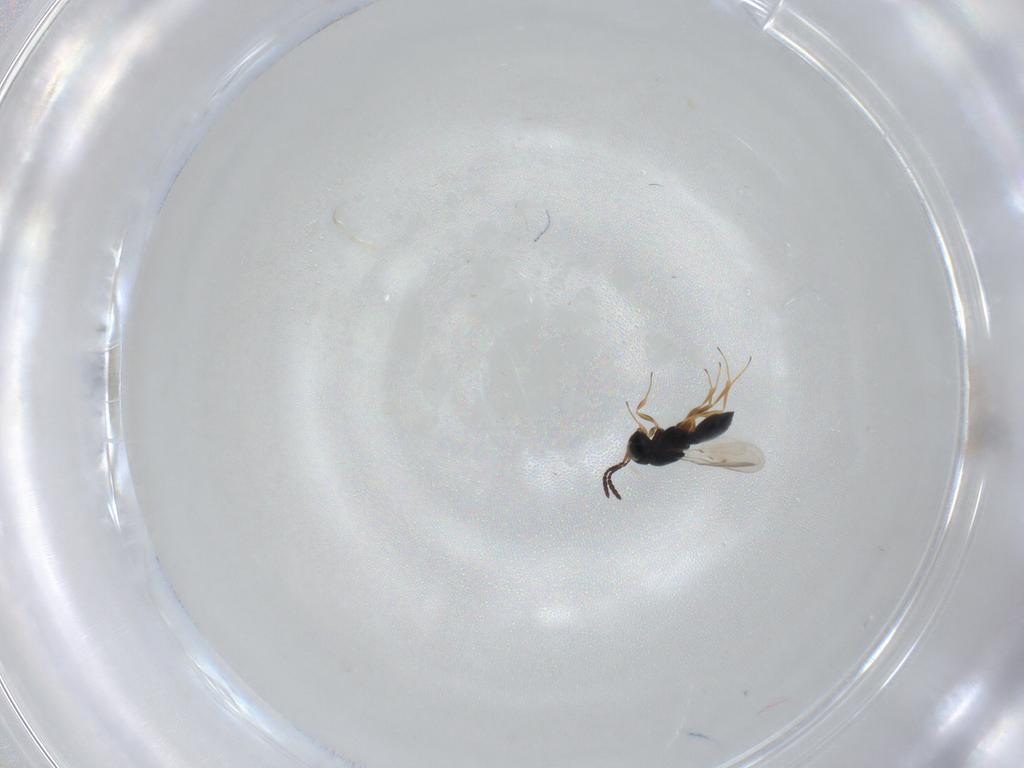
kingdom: Animalia
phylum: Arthropoda
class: Insecta
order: Hymenoptera
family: Scelionidae
